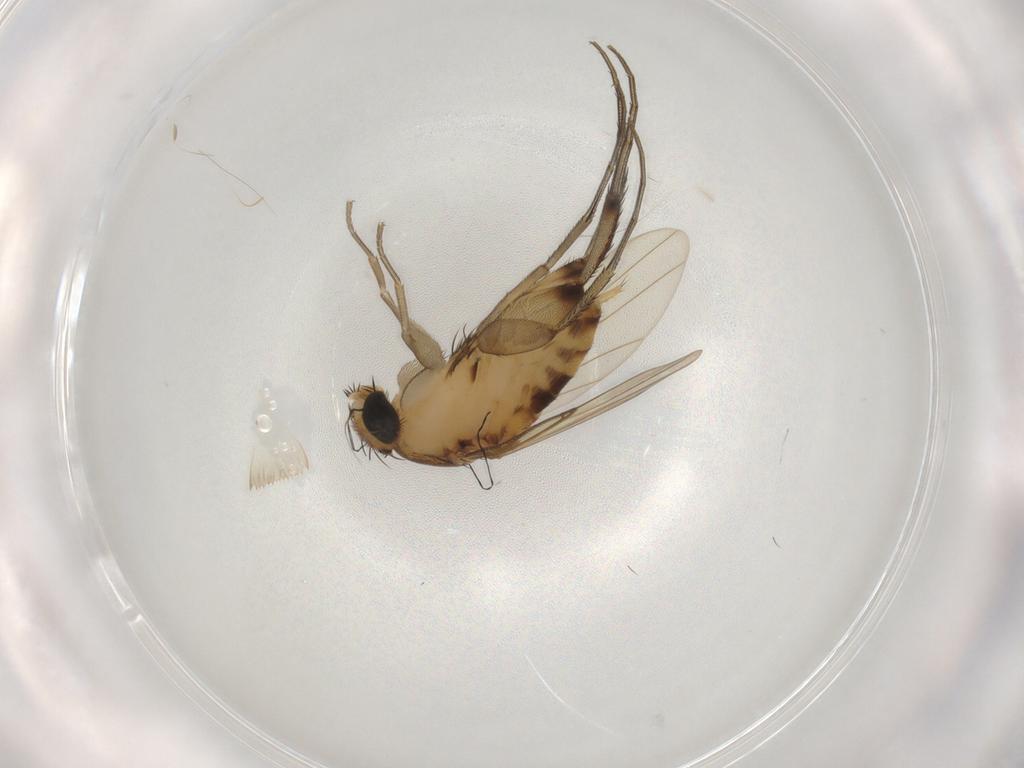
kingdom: Animalia
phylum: Arthropoda
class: Insecta
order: Diptera
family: Phoridae
